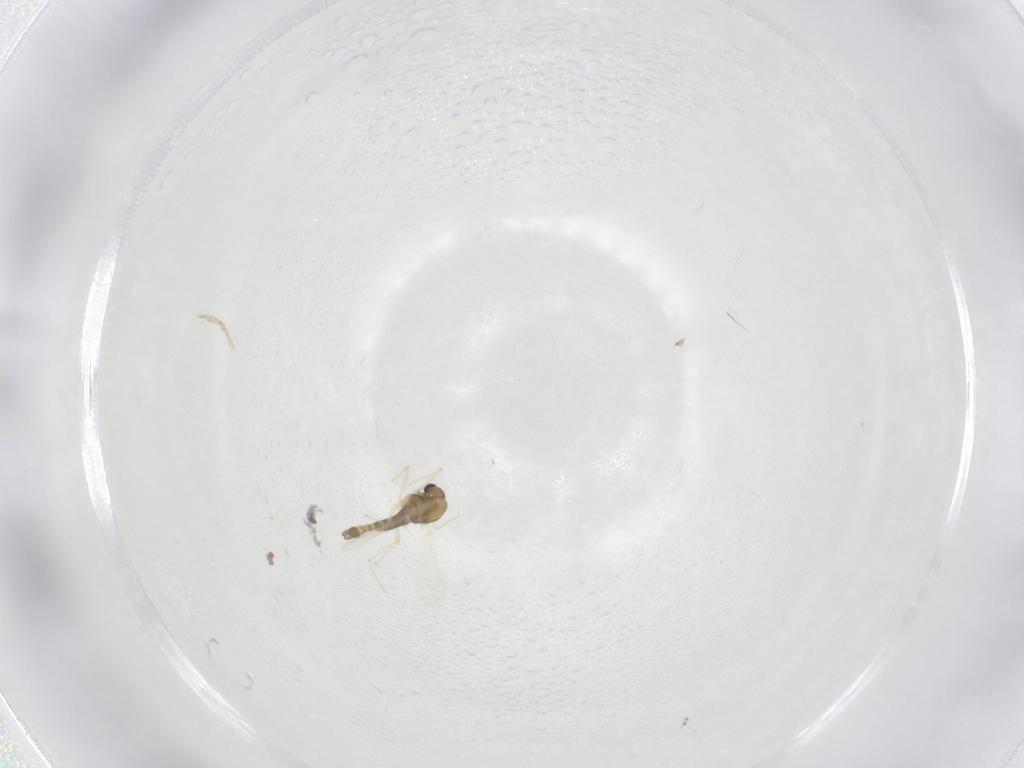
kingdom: Animalia
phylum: Arthropoda
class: Insecta
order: Diptera
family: Chironomidae
